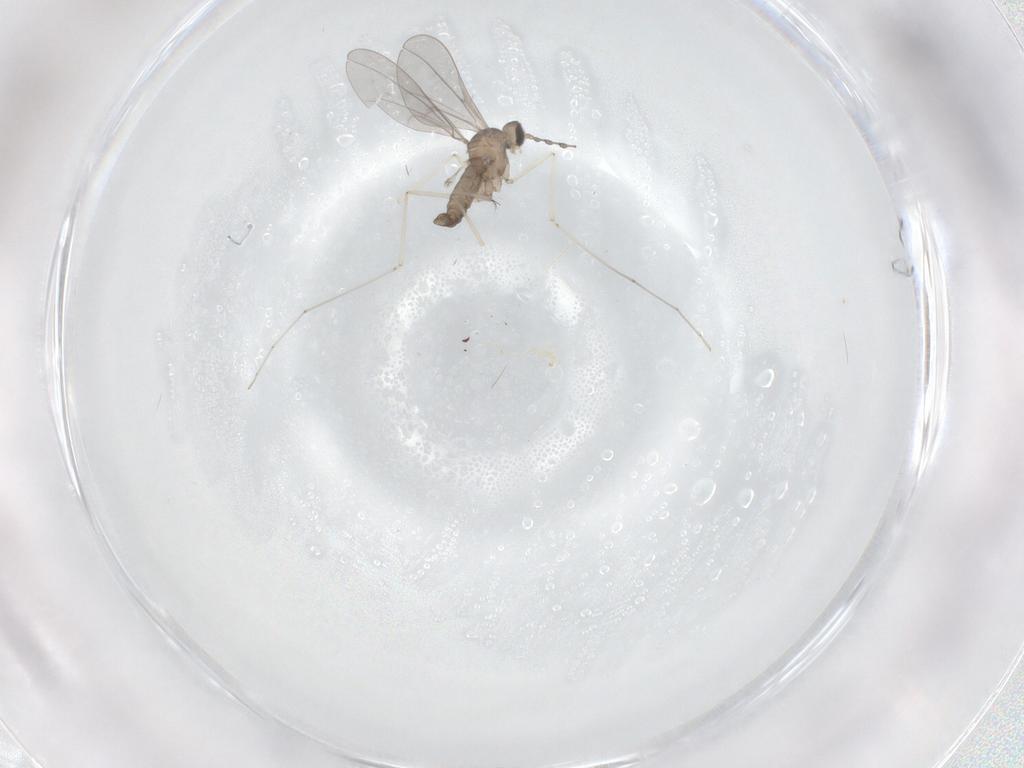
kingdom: Animalia
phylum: Arthropoda
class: Insecta
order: Diptera
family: Cecidomyiidae
